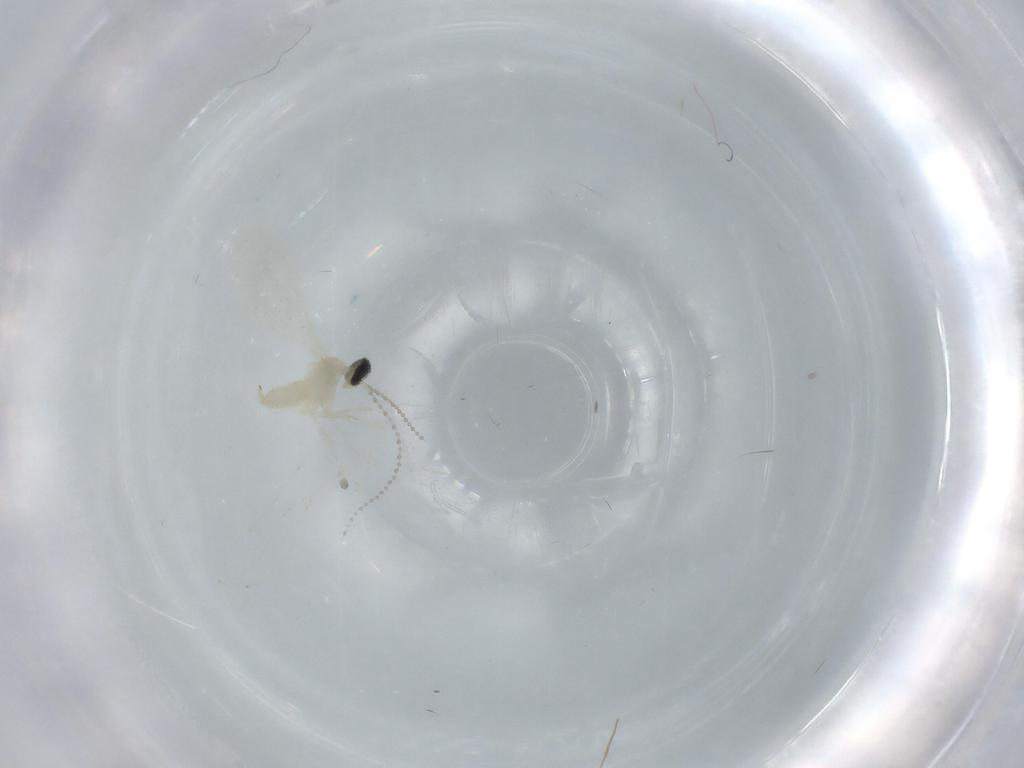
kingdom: Animalia
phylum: Arthropoda
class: Insecta
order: Diptera
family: Cecidomyiidae
